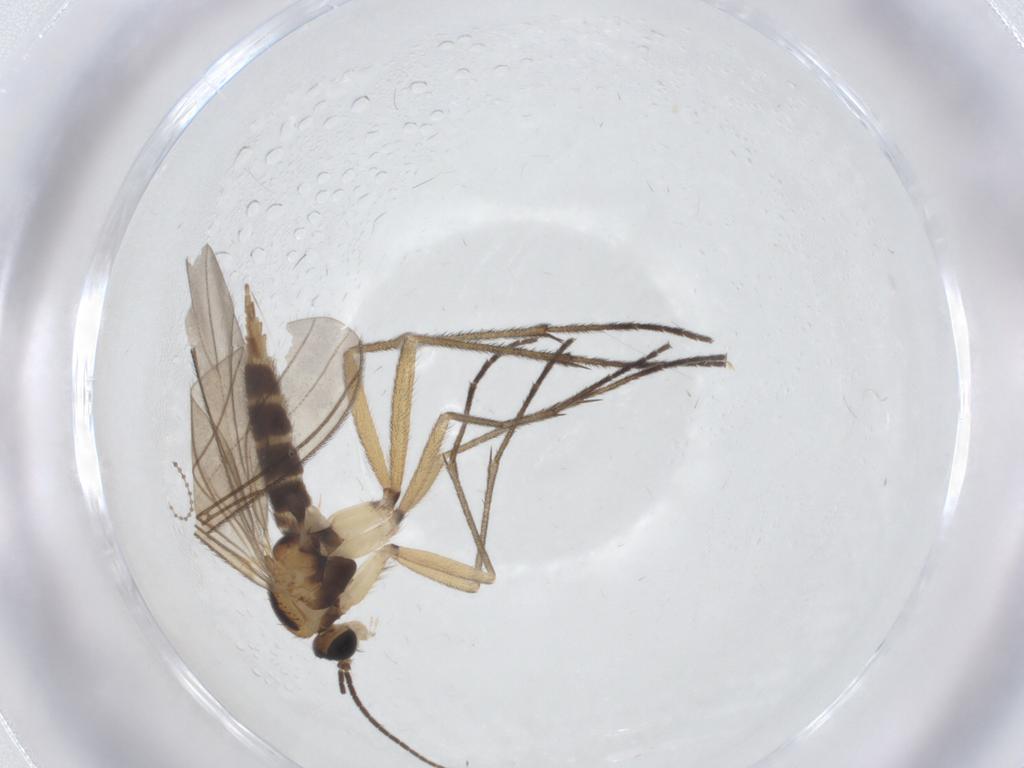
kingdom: Animalia
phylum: Arthropoda
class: Insecta
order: Diptera
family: Sciaridae
